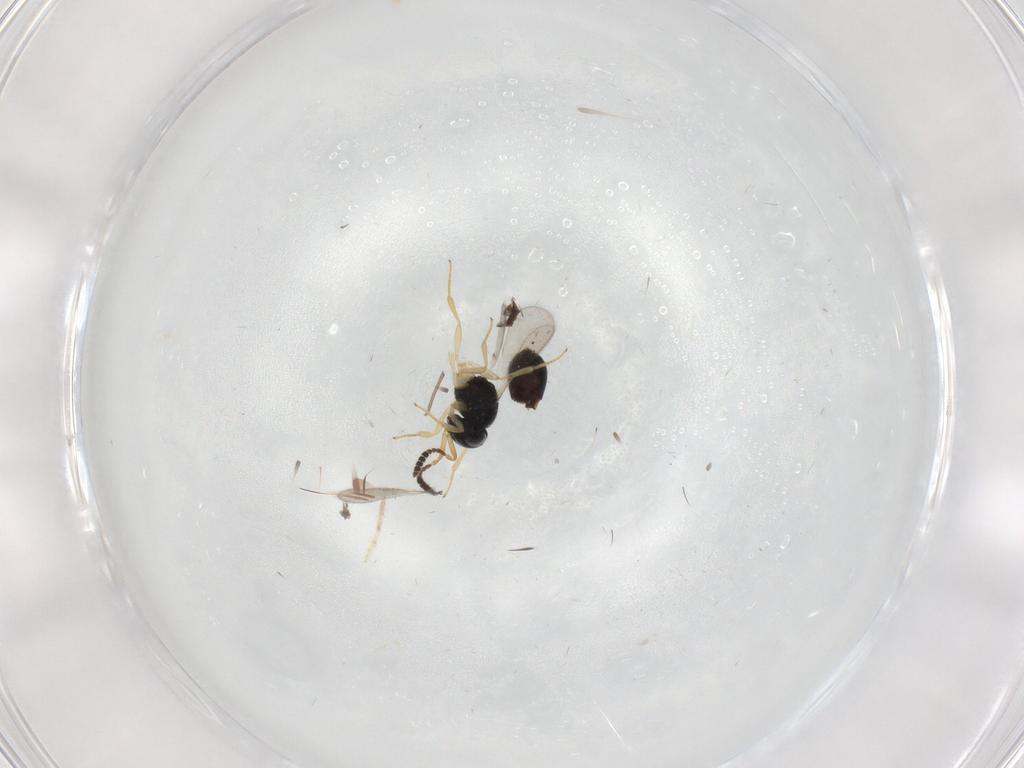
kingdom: Animalia
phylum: Arthropoda
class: Insecta
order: Hymenoptera
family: Scelionidae
